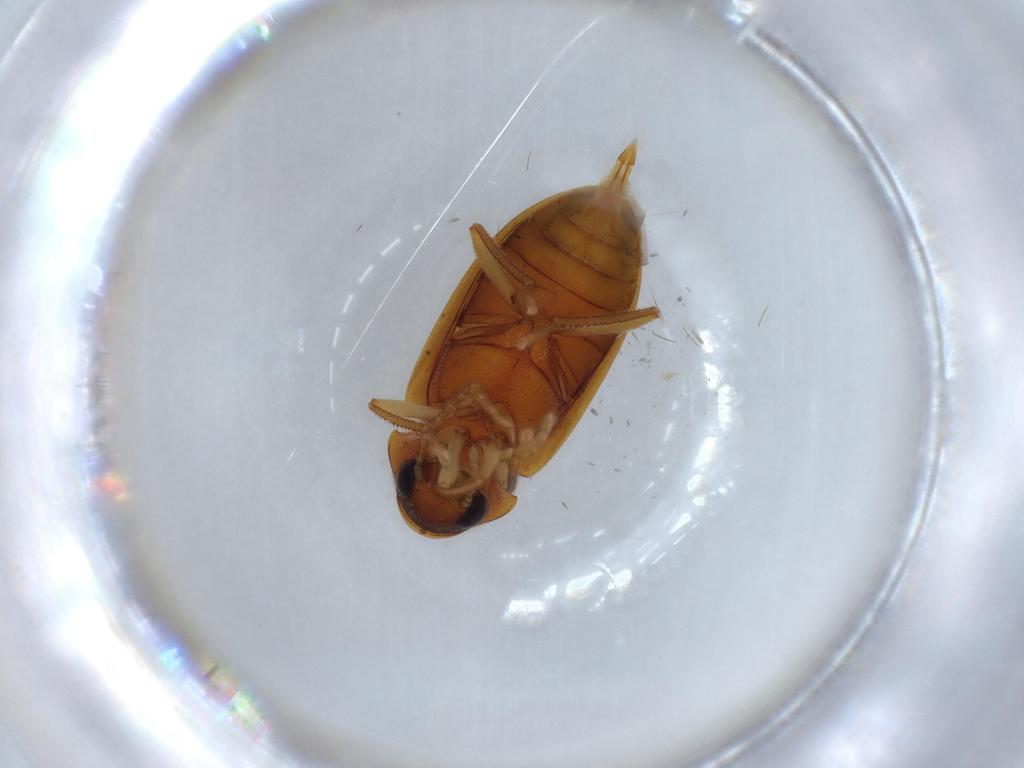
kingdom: Animalia
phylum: Arthropoda
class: Insecta
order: Coleoptera
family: Ptilodactylidae
